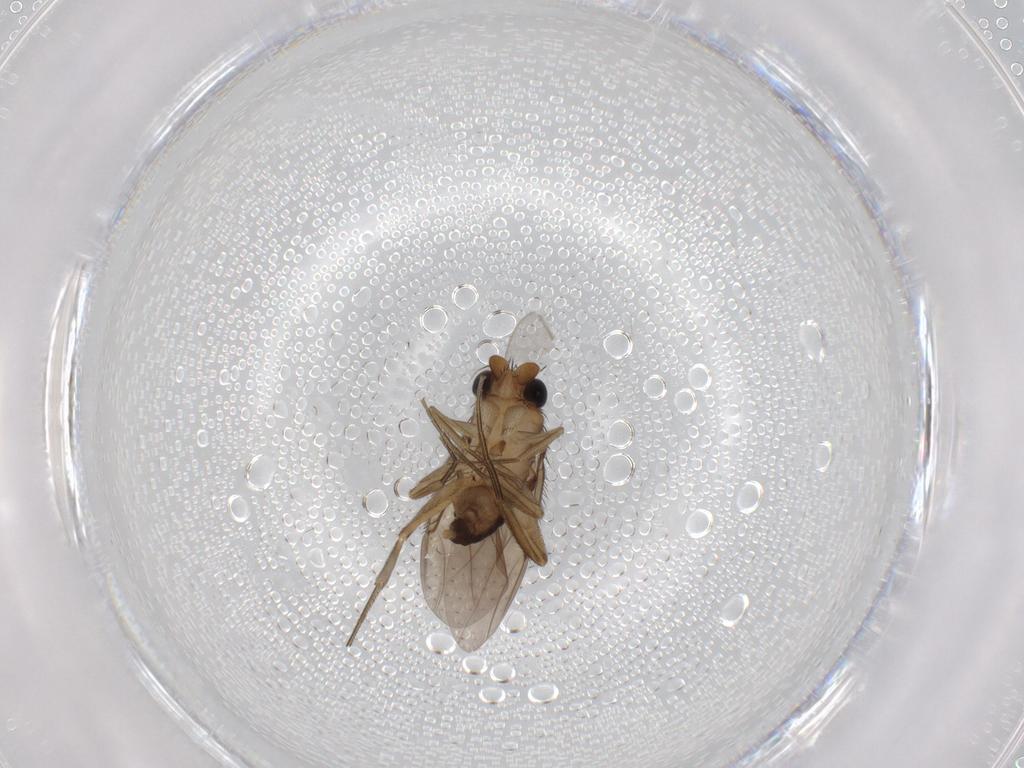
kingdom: Animalia
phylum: Arthropoda
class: Insecta
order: Diptera
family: Phoridae
